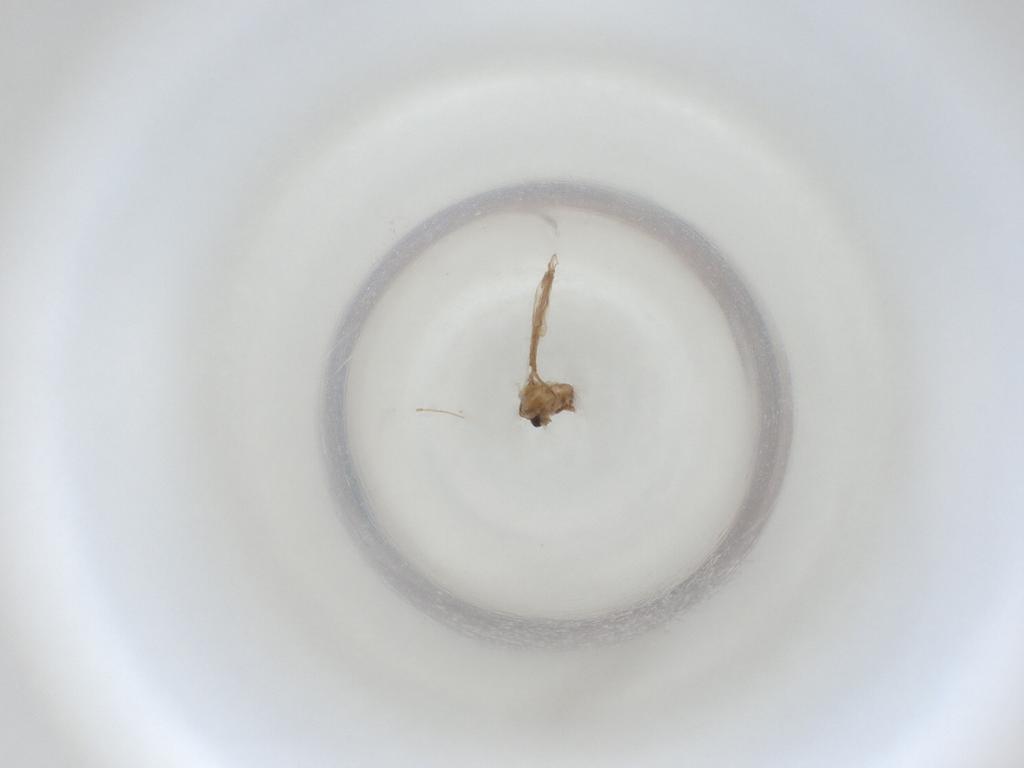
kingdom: Animalia
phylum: Arthropoda
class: Insecta
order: Diptera
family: Cecidomyiidae
